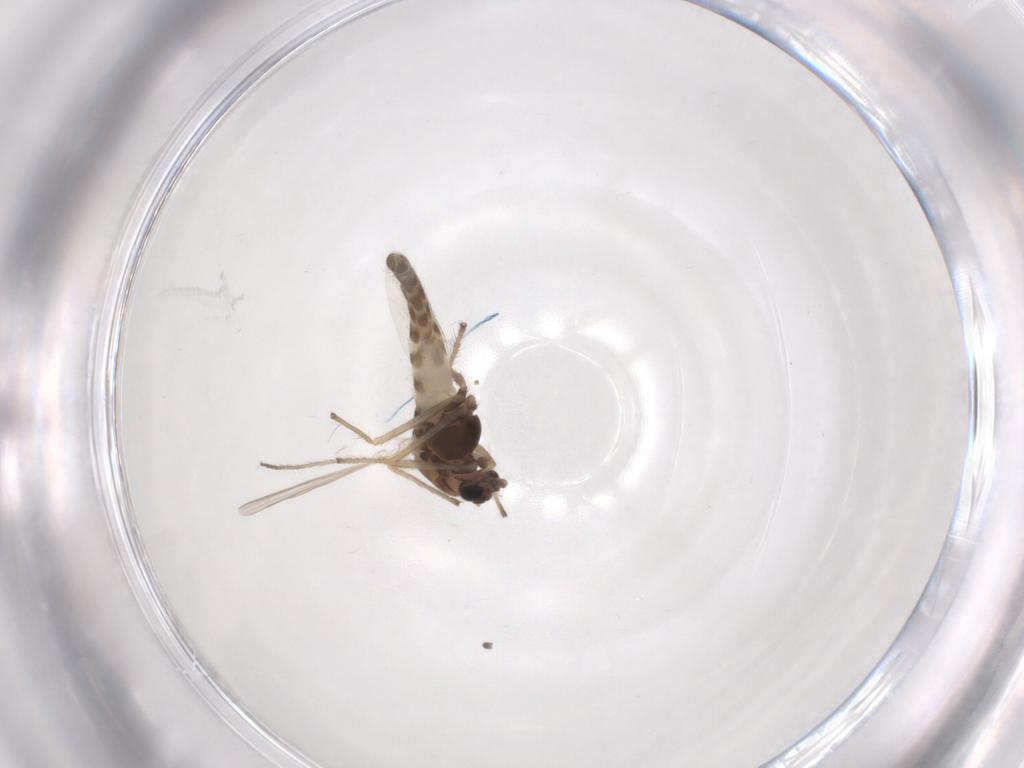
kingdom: Animalia
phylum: Arthropoda
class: Insecta
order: Diptera
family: Chironomidae
